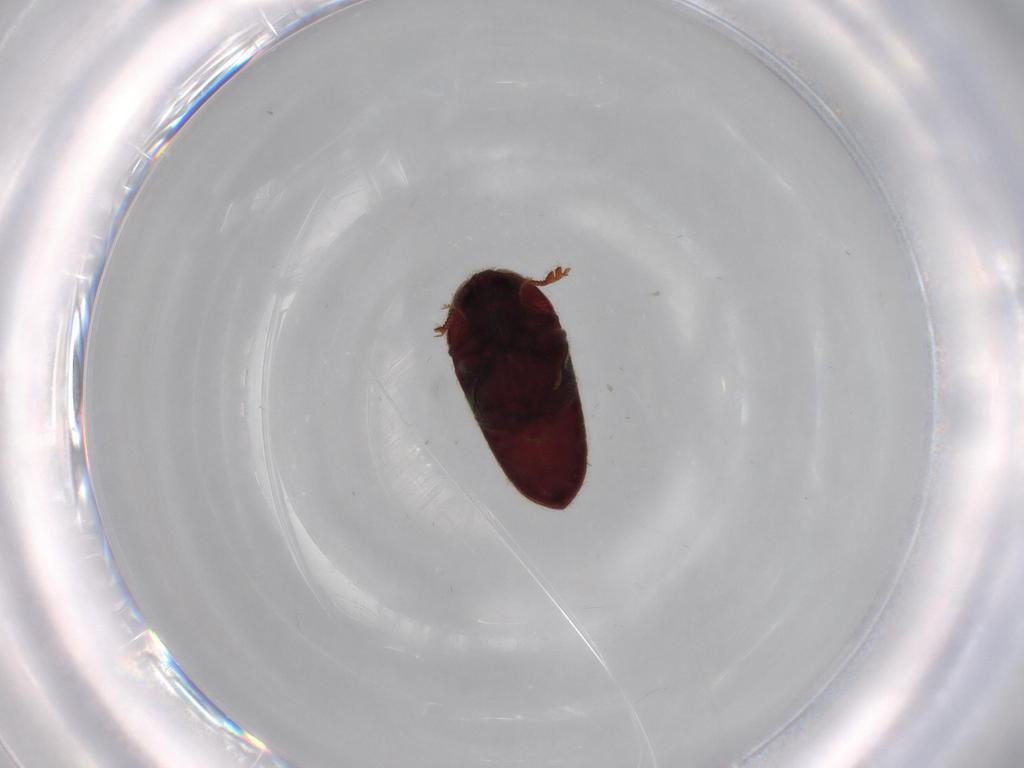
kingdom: Animalia
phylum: Arthropoda
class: Insecta
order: Coleoptera
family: Throscidae
